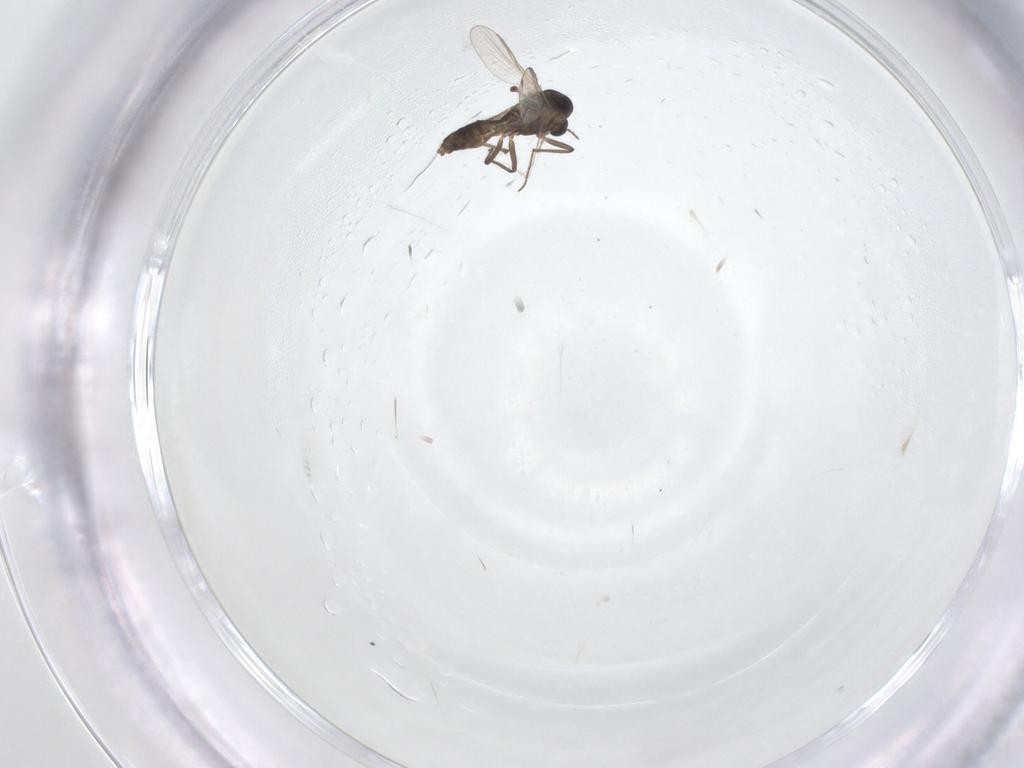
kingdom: Animalia
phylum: Arthropoda
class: Insecta
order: Diptera
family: Chironomidae
